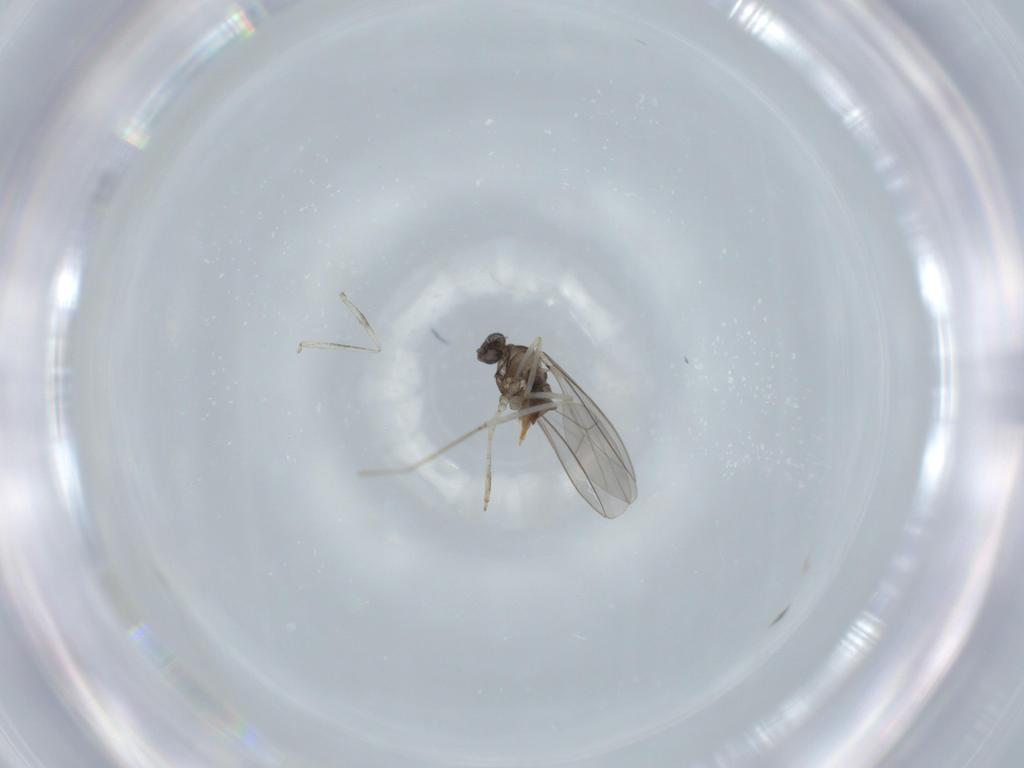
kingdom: Animalia
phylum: Arthropoda
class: Insecta
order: Diptera
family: Cecidomyiidae
